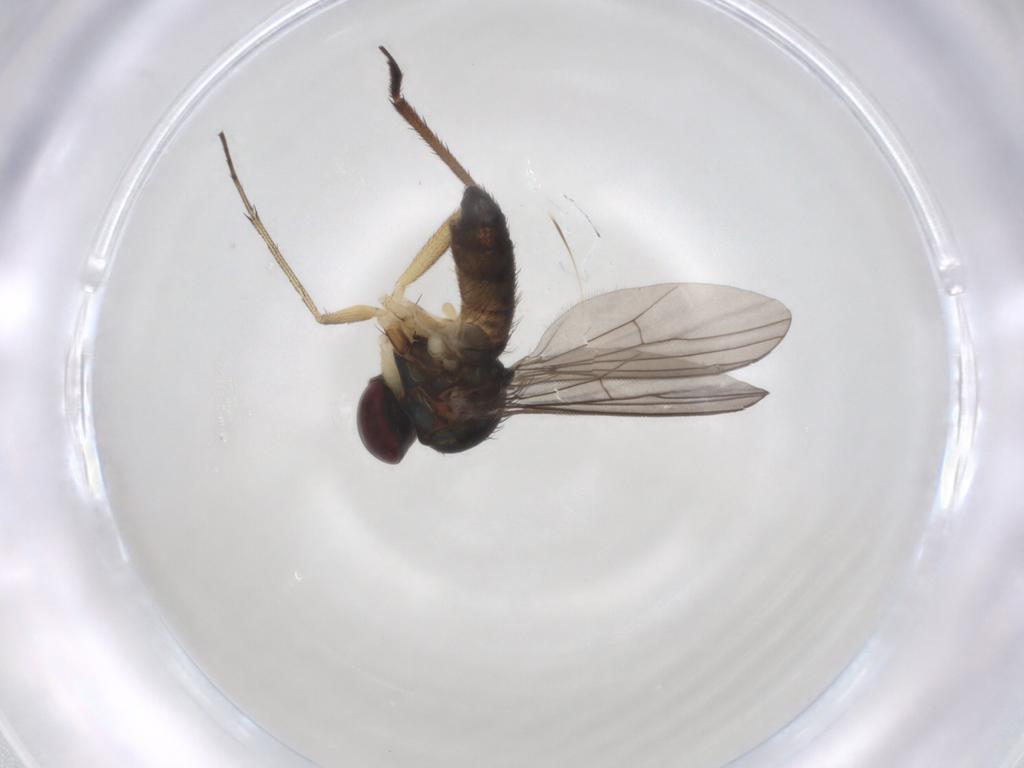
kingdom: Animalia
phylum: Arthropoda
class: Insecta
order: Diptera
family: Dolichopodidae
